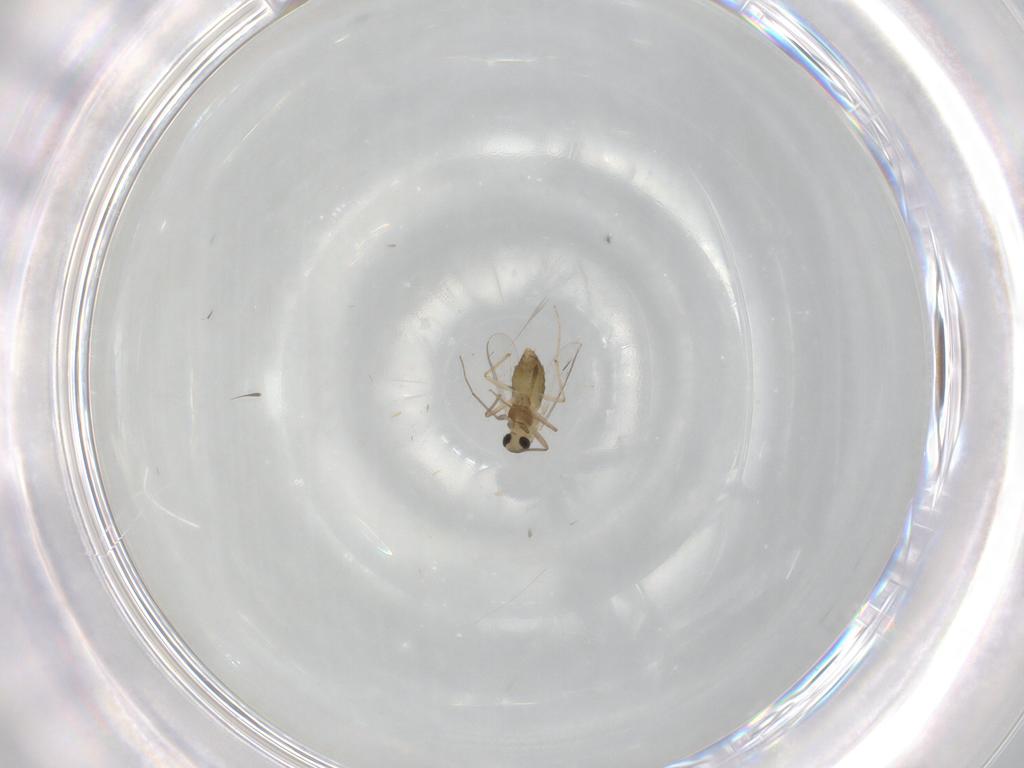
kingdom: Animalia
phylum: Arthropoda
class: Insecta
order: Diptera
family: Chironomidae
